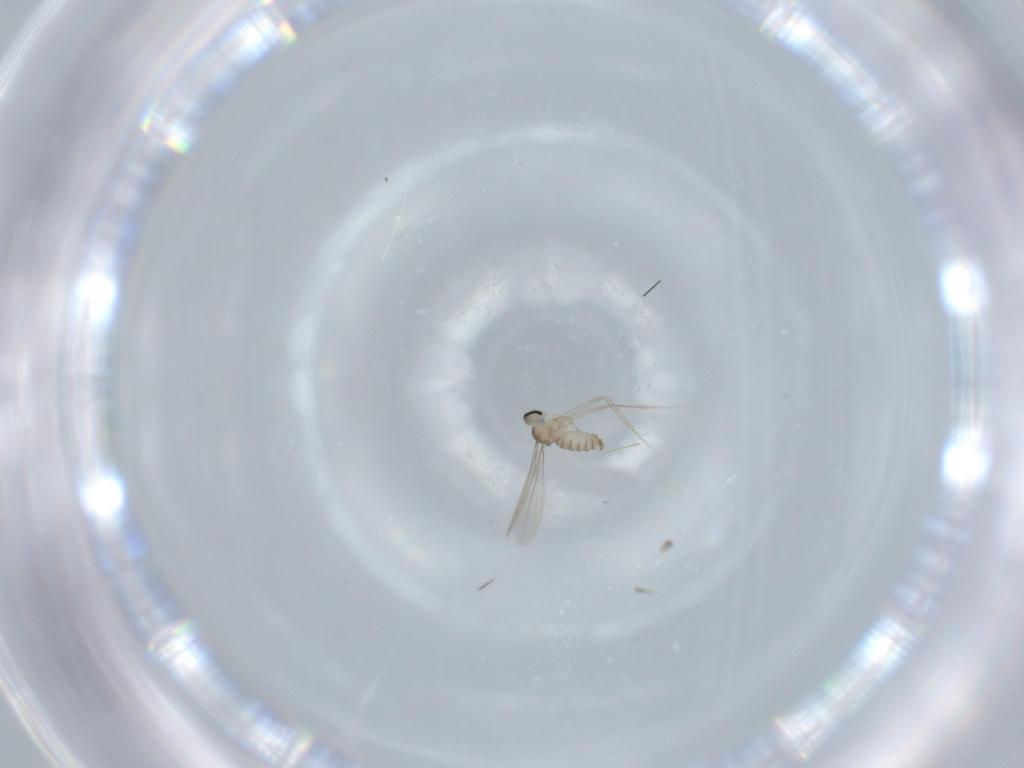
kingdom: Animalia
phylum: Arthropoda
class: Insecta
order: Diptera
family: Cecidomyiidae
